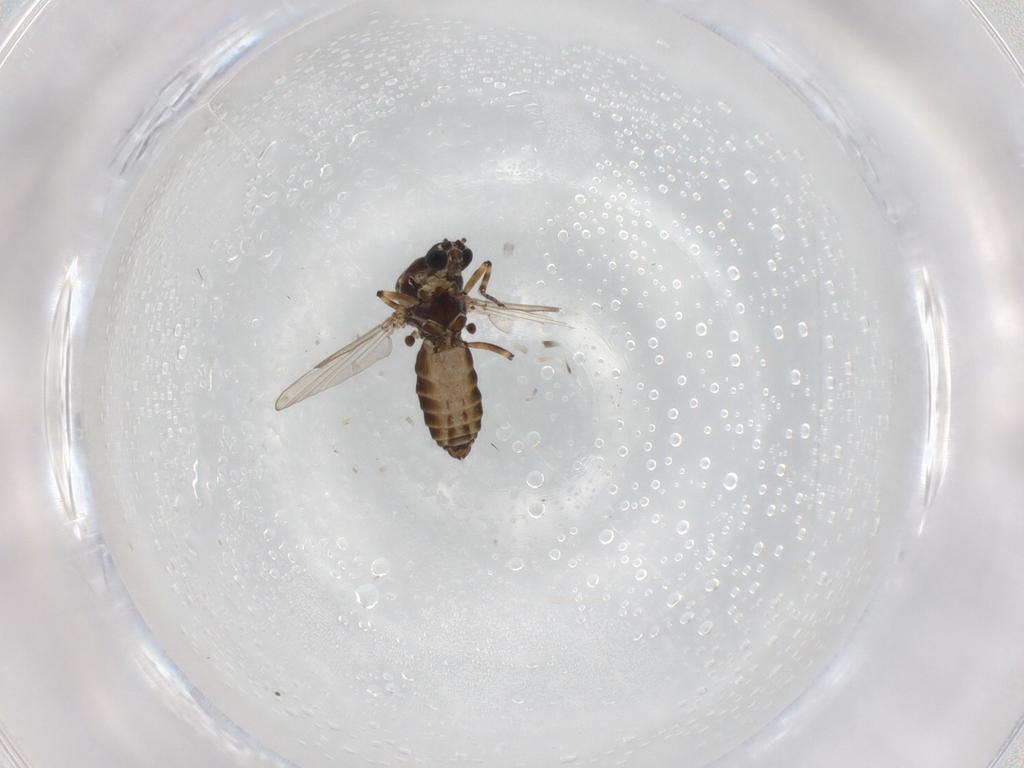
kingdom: Animalia
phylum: Arthropoda
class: Insecta
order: Diptera
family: Ceratopogonidae
